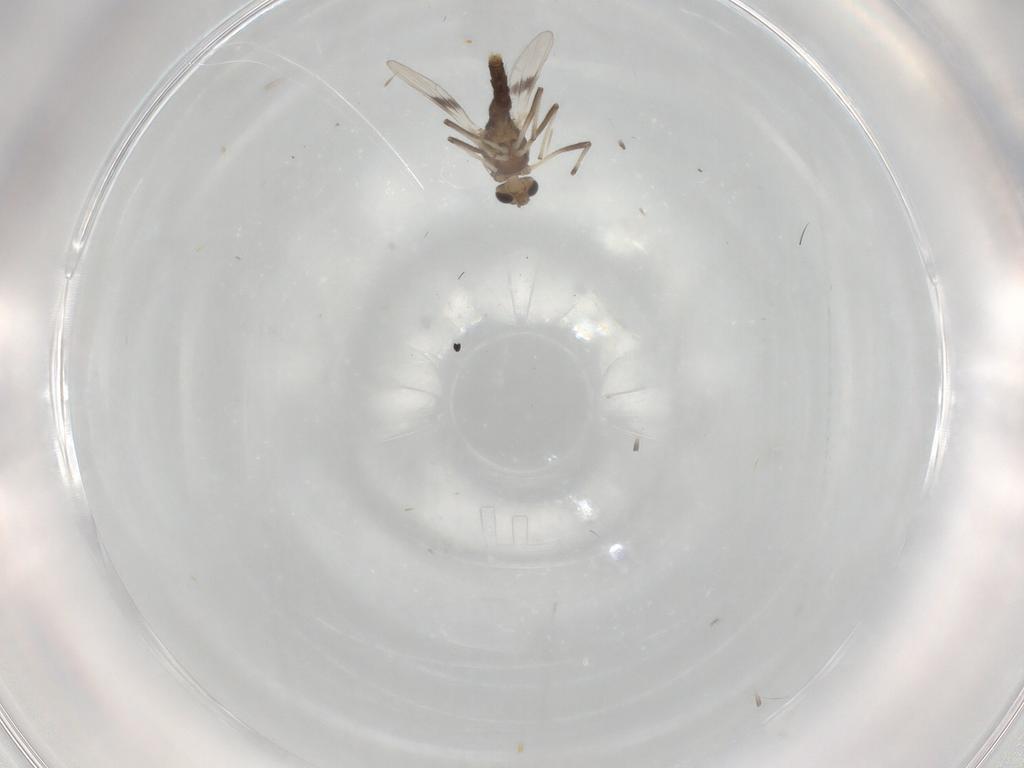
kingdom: Animalia
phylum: Arthropoda
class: Insecta
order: Diptera
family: Chironomidae
